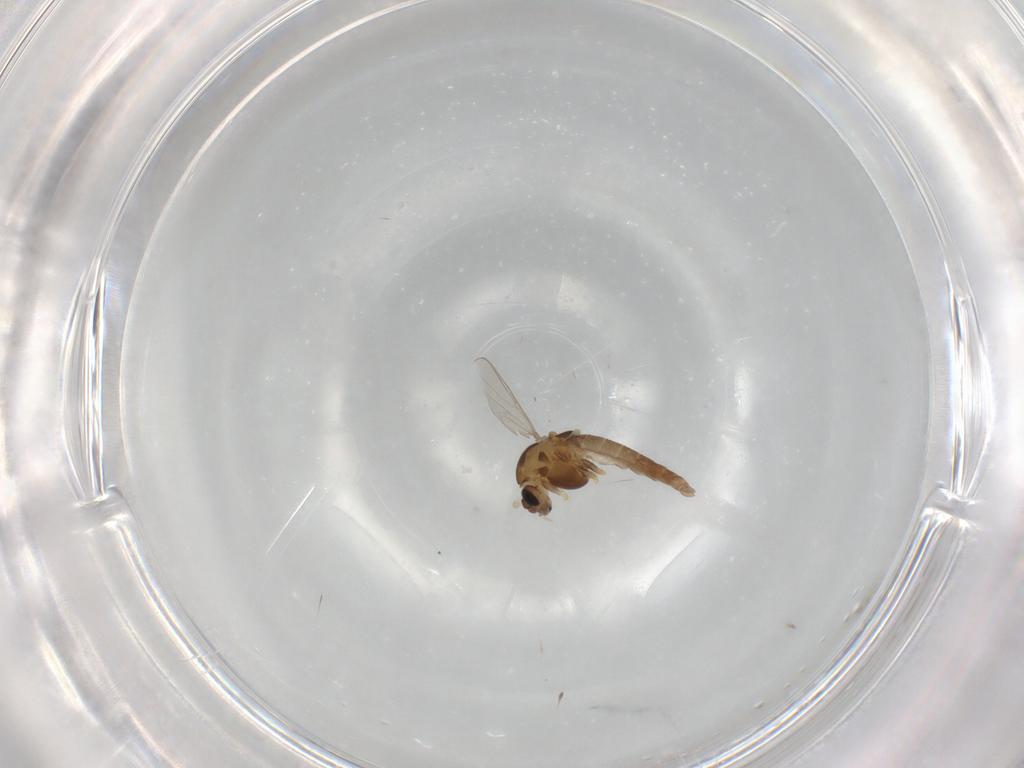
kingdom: Animalia
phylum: Arthropoda
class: Insecta
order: Diptera
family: Chironomidae
